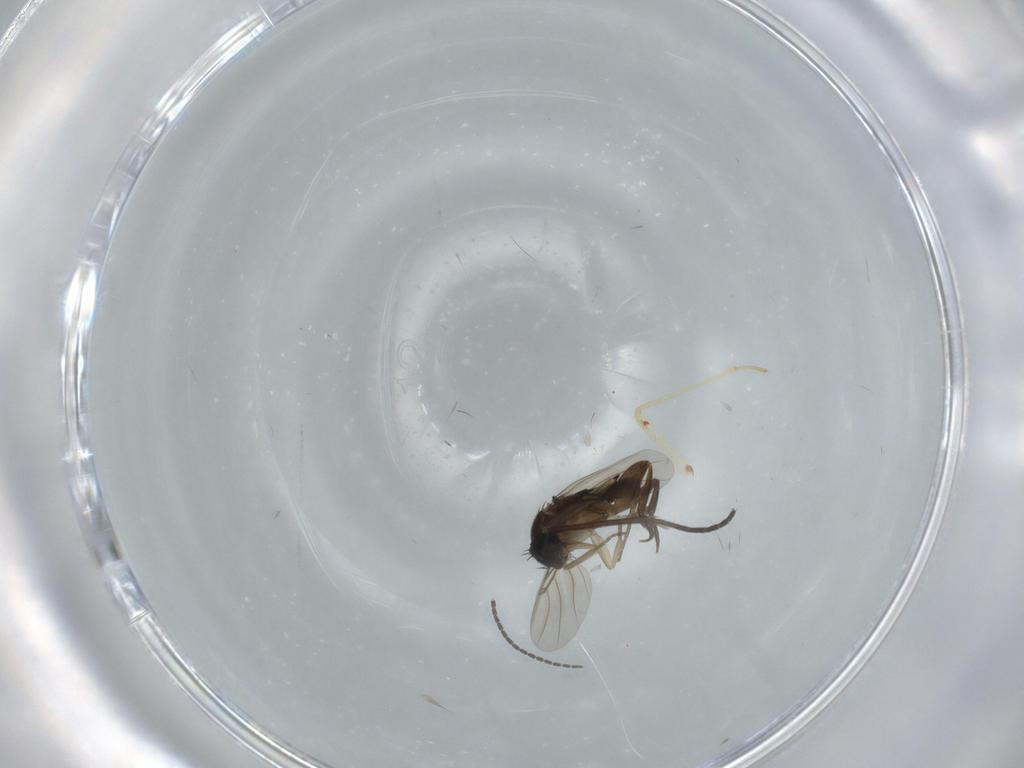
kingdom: Animalia
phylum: Arthropoda
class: Insecta
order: Diptera
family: Phoridae
